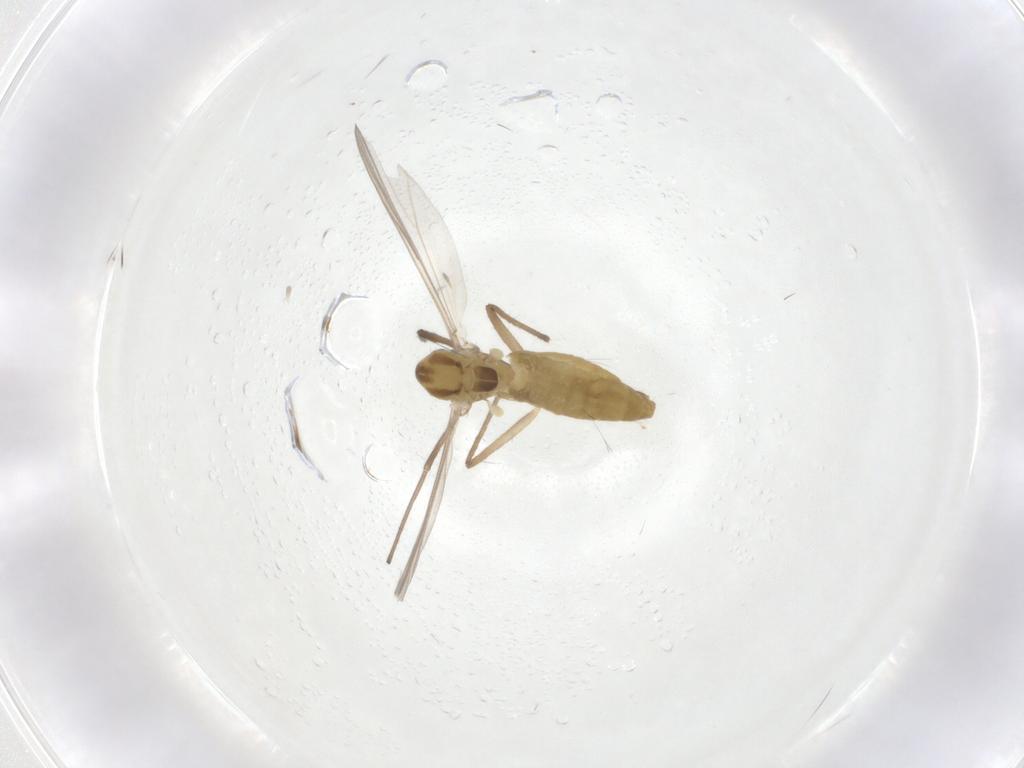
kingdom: Animalia
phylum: Arthropoda
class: Insecta
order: Diptera
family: Chironomidae
